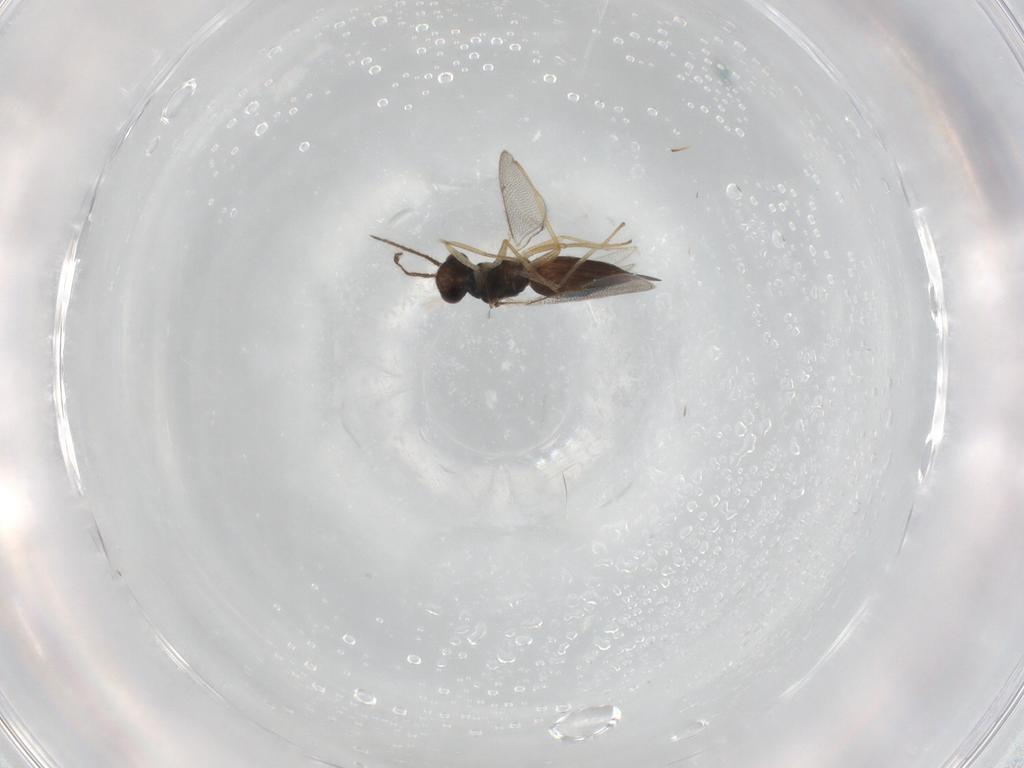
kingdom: Animalia
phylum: Arthropoda
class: Insecta
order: Hymenoptera
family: Eulophidae
